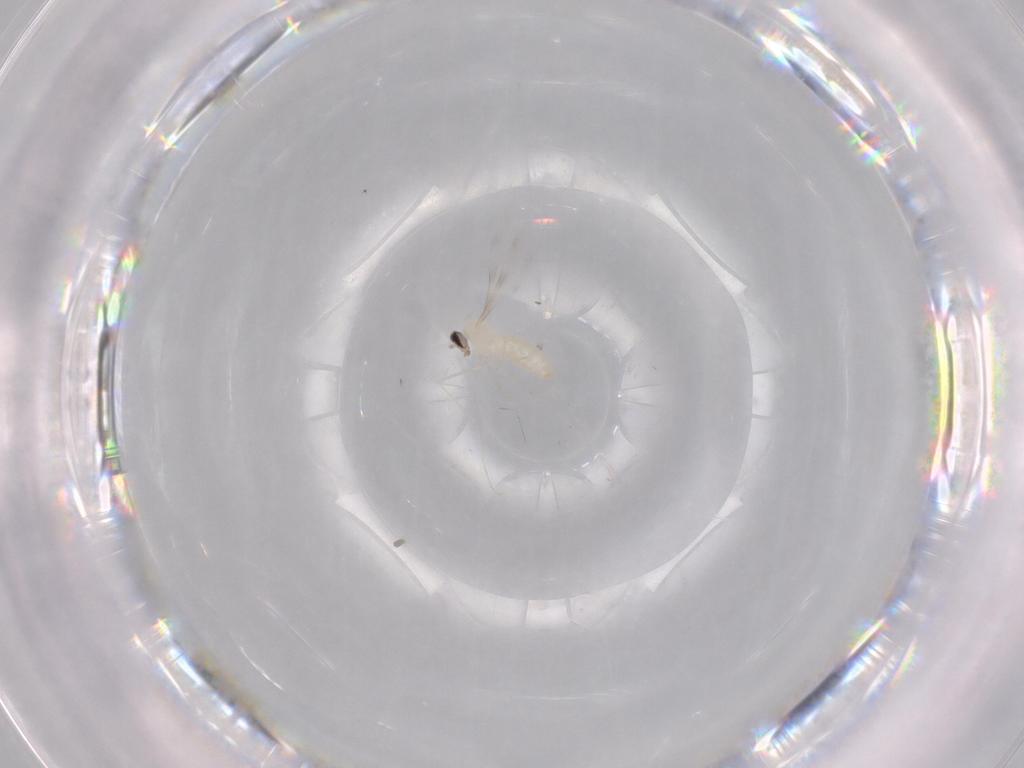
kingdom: Animalia
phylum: Arthropoda
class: Insecta
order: Diptera
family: Cecidomyiidae
